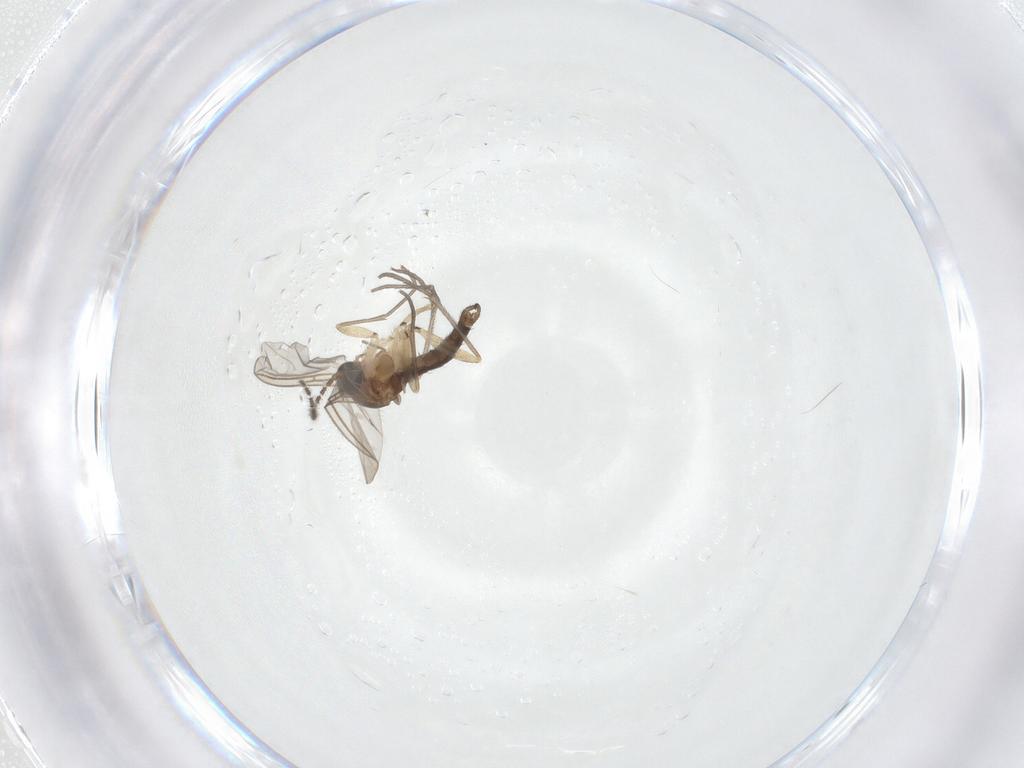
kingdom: Animalia
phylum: Arthropoda
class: Insecta
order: Diptera
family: Sciaridae
